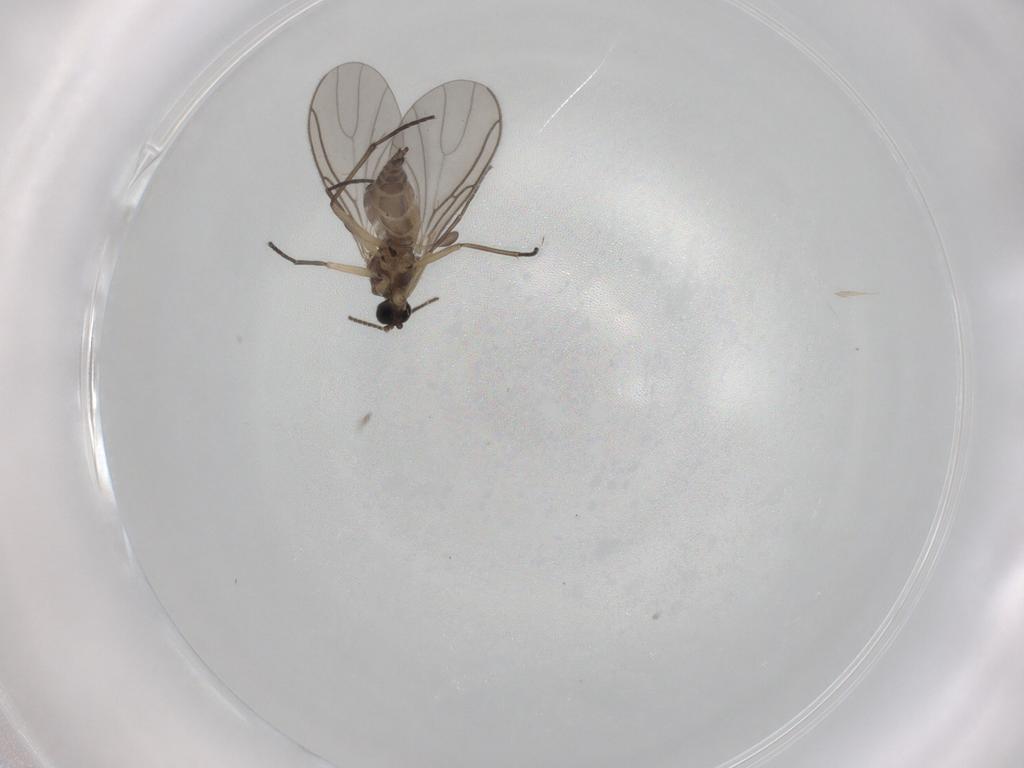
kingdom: Animalia
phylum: Arthropoda
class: Insecta
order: Diptera
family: Sciaridae
